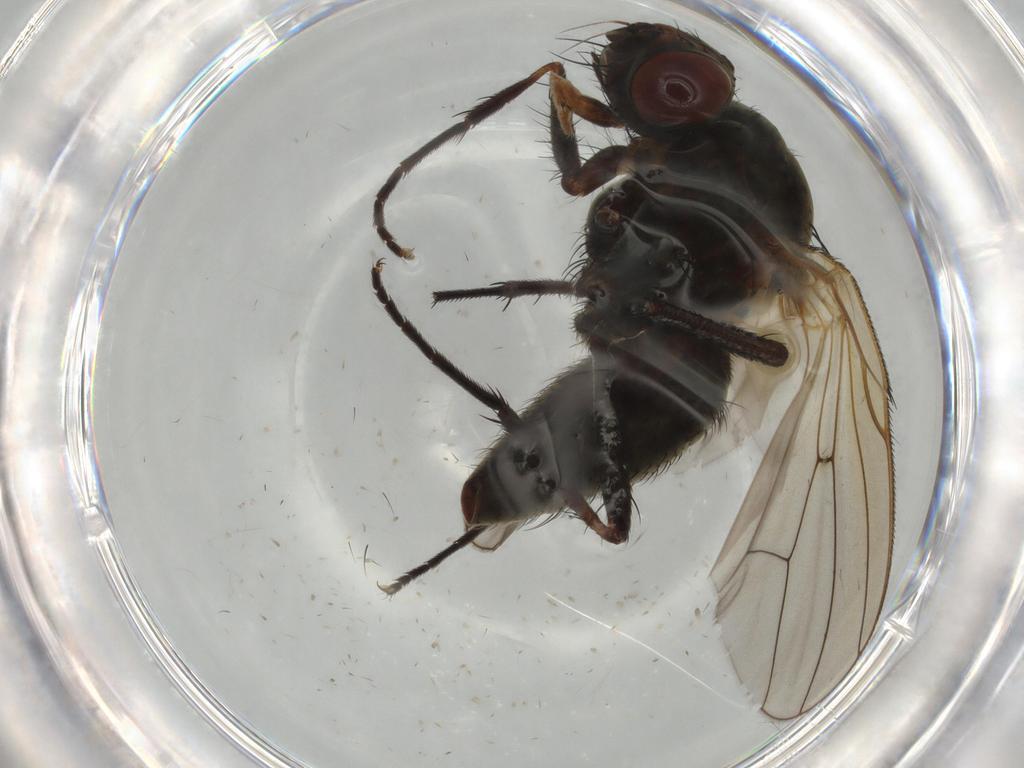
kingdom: Animalia
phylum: Arthropoda
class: Insecta
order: Diptera
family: Anthomyiidae
